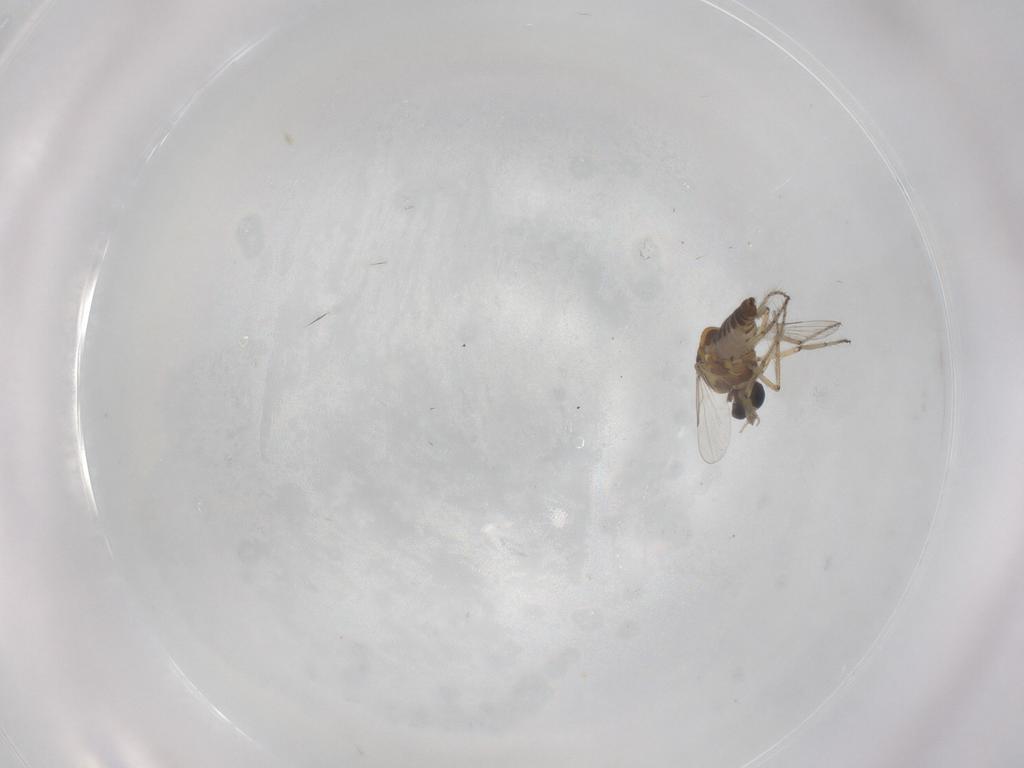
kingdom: Animalia
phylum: Arthropoda
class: Insecta
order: Diptera
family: Ceratopogonidae
